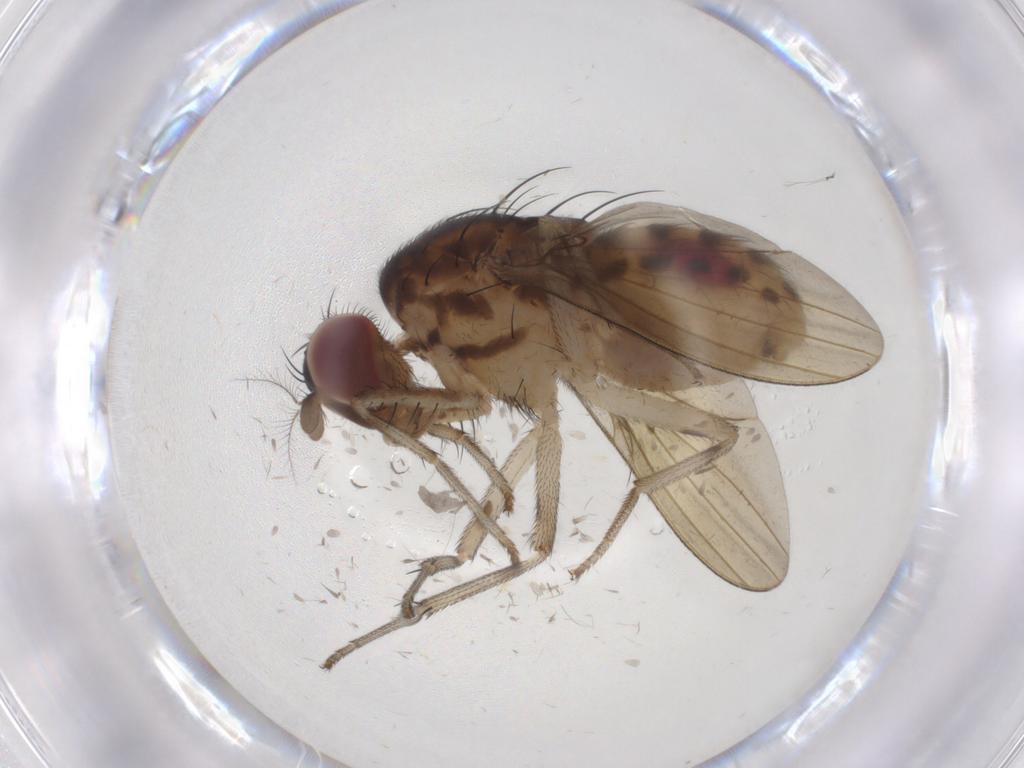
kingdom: Animalia
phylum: Arthropoda
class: Insecta
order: Diptera
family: Lauxaniidae
